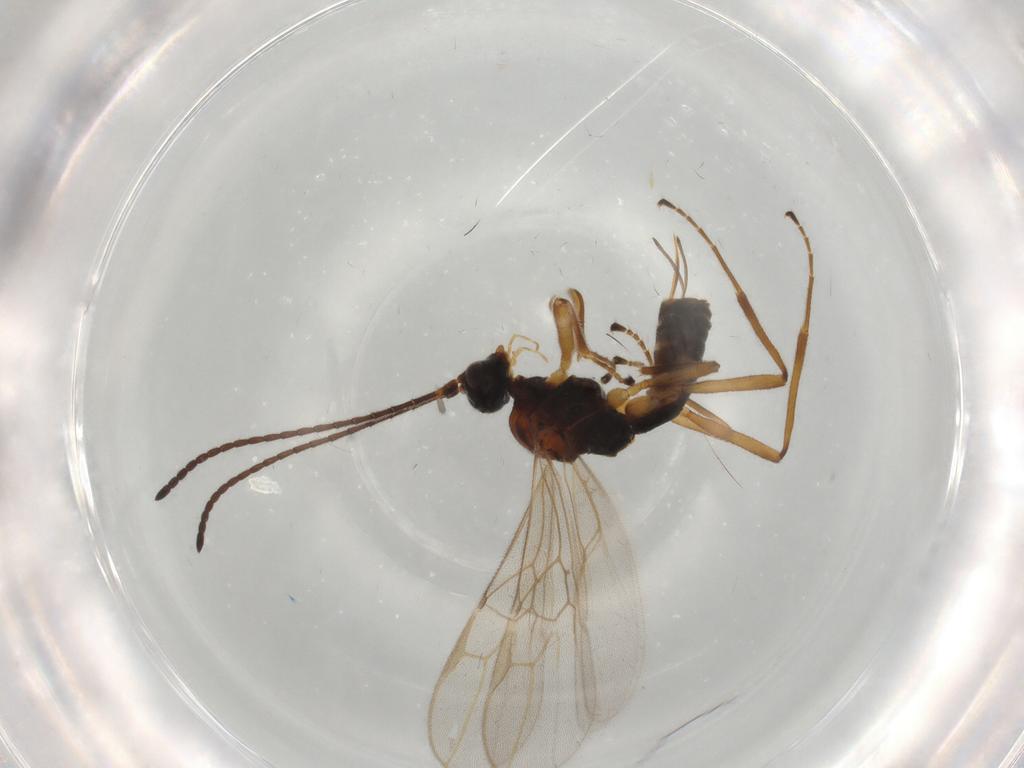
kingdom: Animalia
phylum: Arthropoda
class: Insecta
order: Hymenoptera
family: Braconidae
